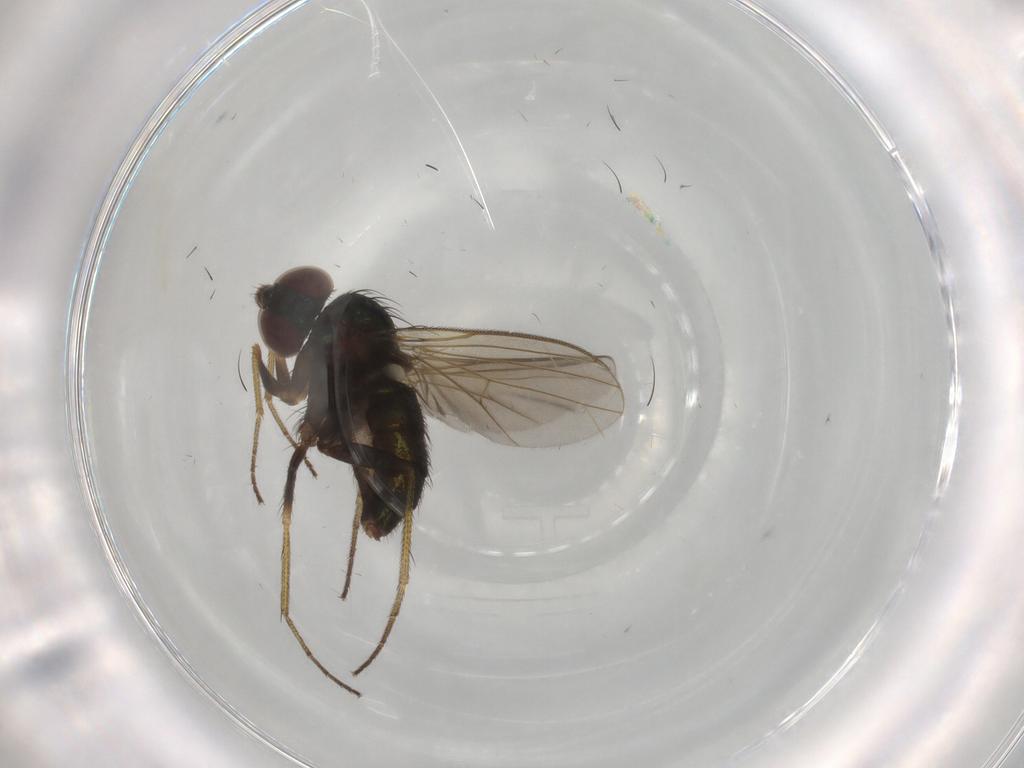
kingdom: Animalia
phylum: Arthropoda
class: Insecta
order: Diptera
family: Dolichopodidae
